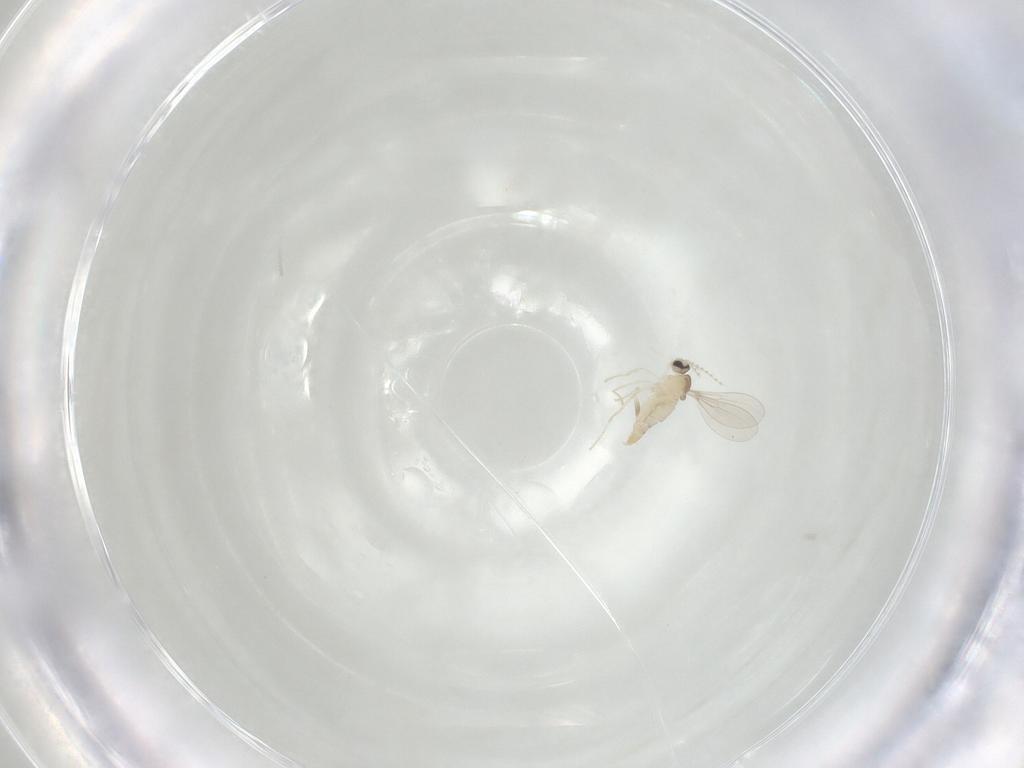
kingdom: Animalia
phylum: Arthropoda
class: Insecta
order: Diptera
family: Cecidomyiidae
